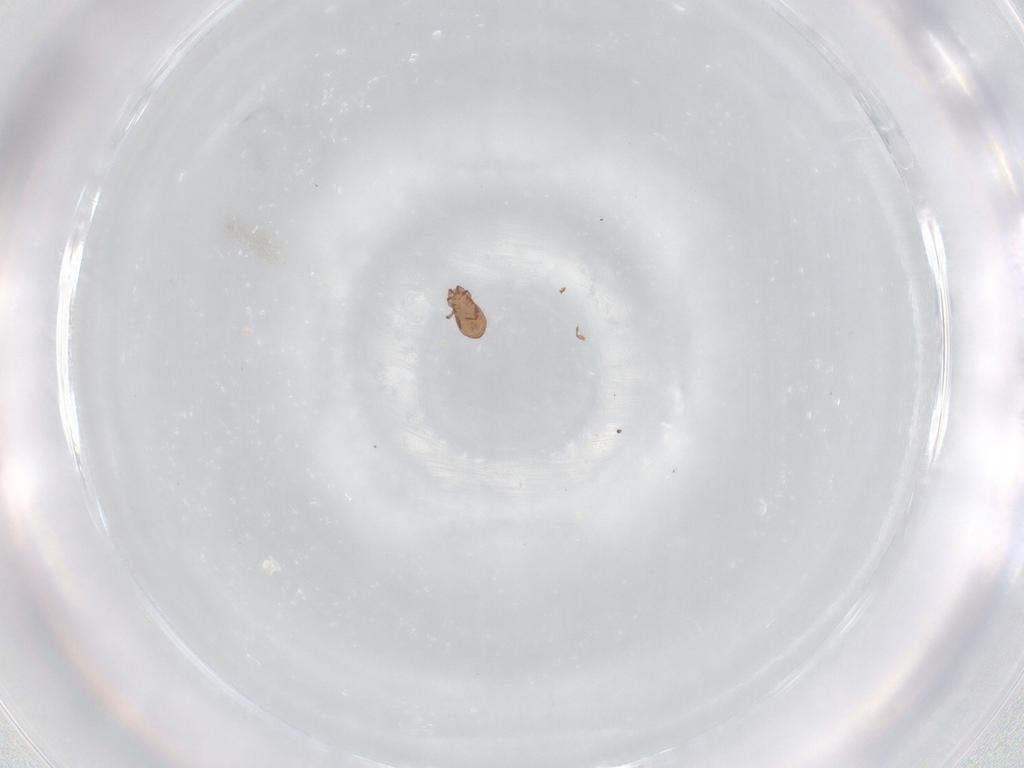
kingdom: Animalia
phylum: Arthropoda
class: Arachnida
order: Sarcoptiformes
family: Eremaeidae
